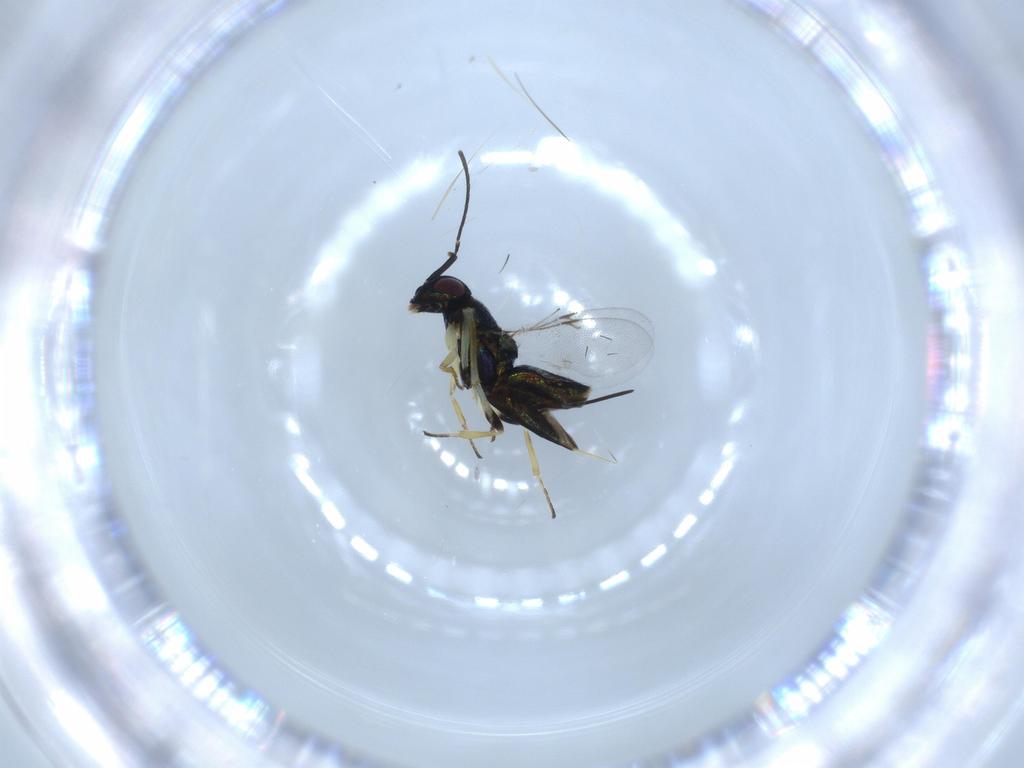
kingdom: Animalia
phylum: Arthropoda
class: Insecta
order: Hymenoptera
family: Ichneumonidae
